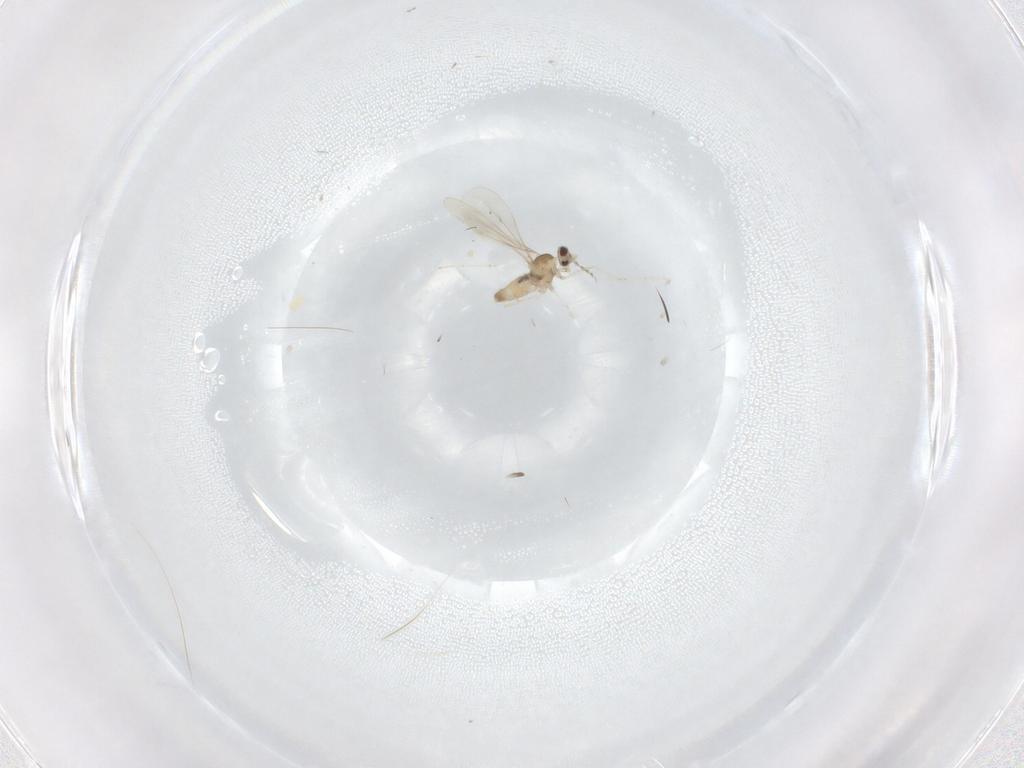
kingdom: Animalia
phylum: Arthropoda
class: Insecta
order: Diptera
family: Cecidomyiidae
